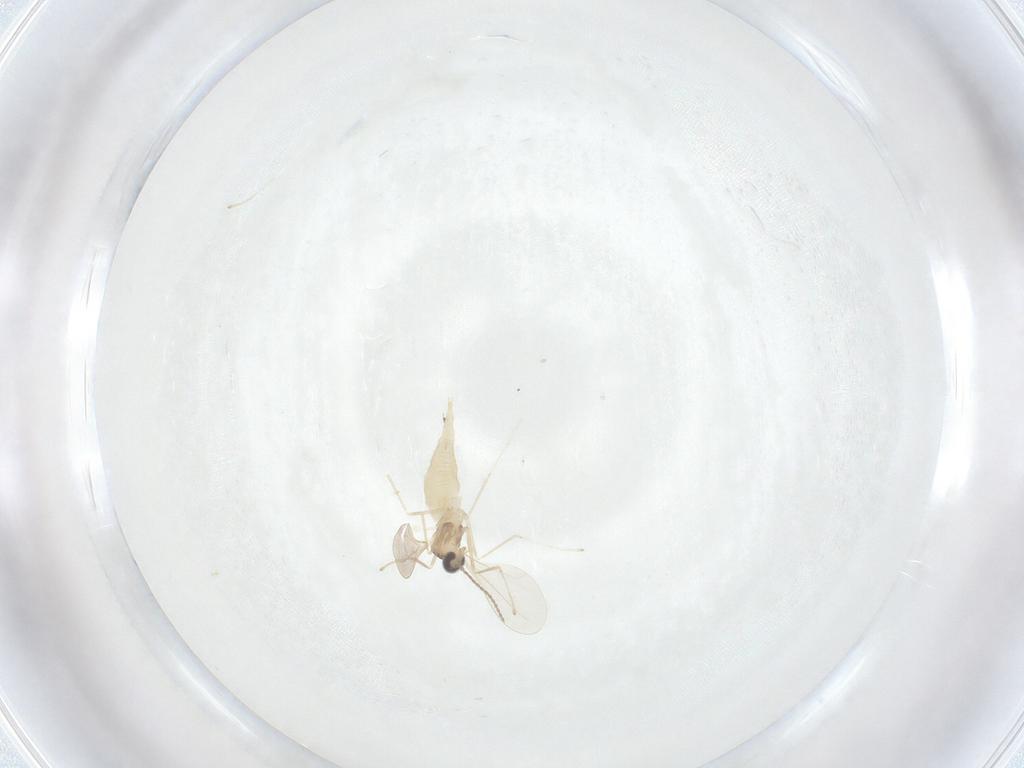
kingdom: Animalia
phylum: Arthropoda
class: Insecta
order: Diptera
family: Cecidomyiidae
